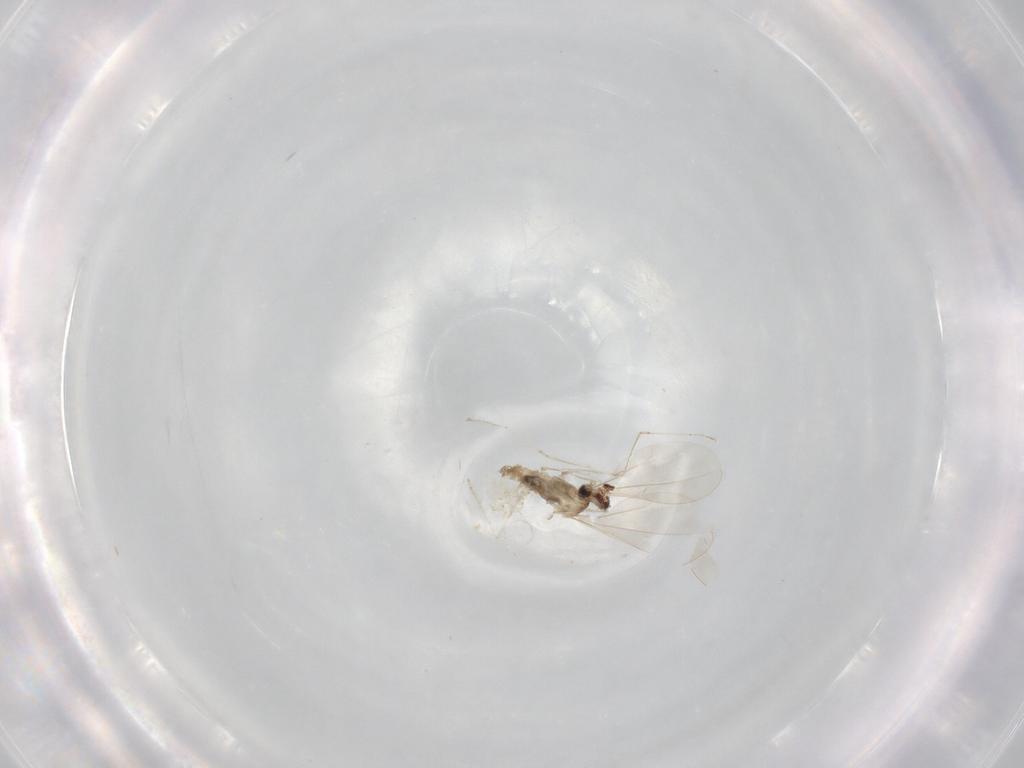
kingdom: Animalia
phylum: Arthropoda
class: Insecta
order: Diptera
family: Cecidomyiidae
